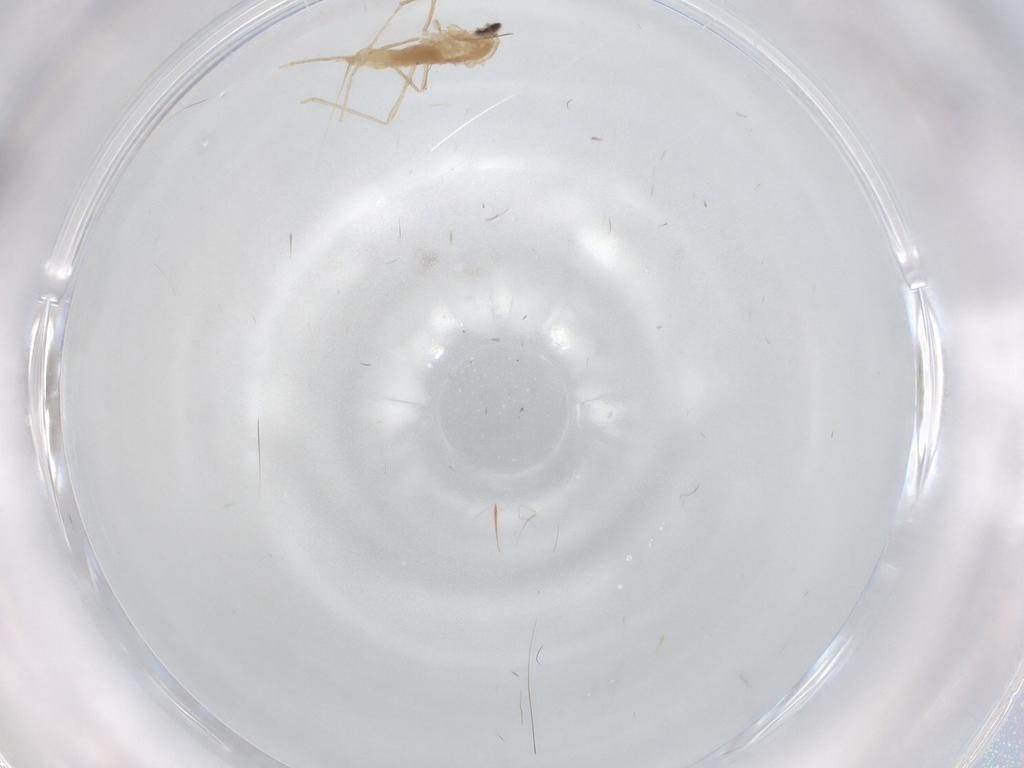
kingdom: Animalia
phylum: Arthropoda
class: Insecta
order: Diptera
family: Cecidomyiidae
